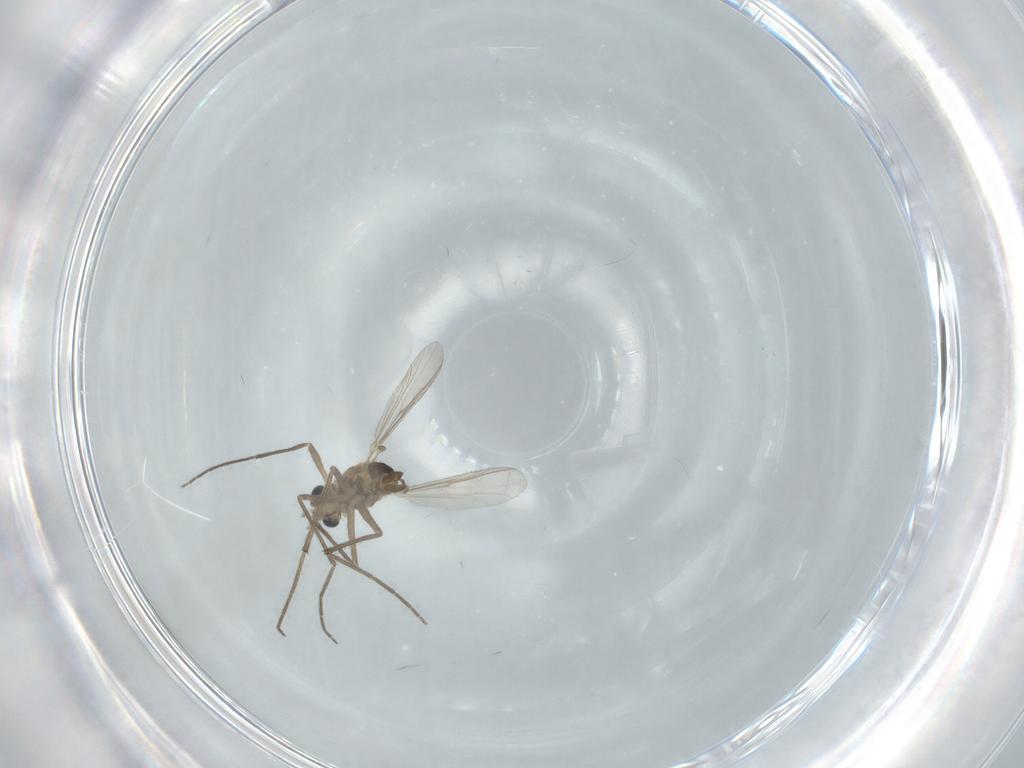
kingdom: Animalia
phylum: Arthropoda
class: Insecta
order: Diptera
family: Chironomidae
